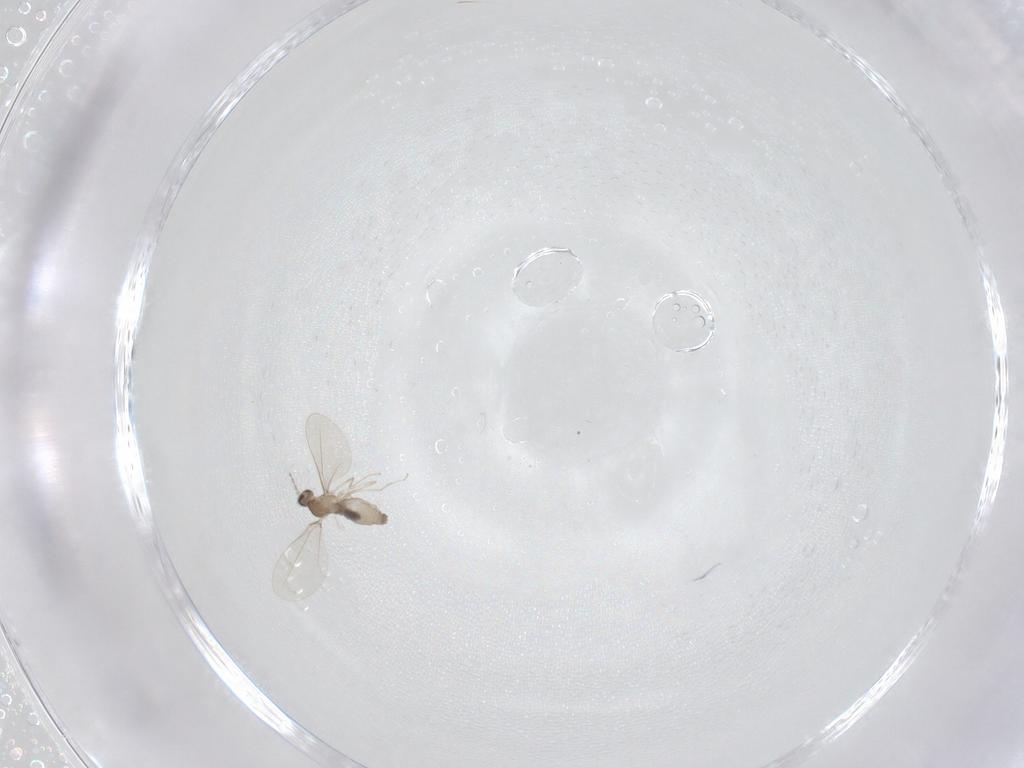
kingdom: Animalia
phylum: Arthropoda
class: Insecta
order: Diptera
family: Cecidomyiidae
